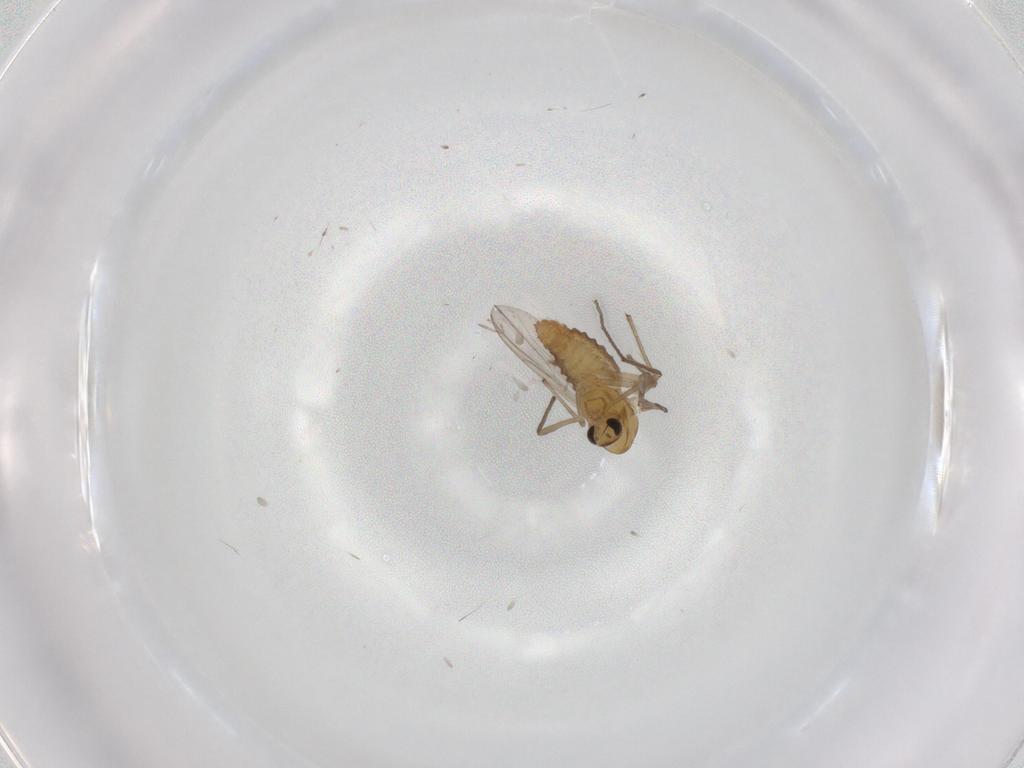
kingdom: Animalia
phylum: Arthropoda
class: Insecta
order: Diptera
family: Chironomidae
